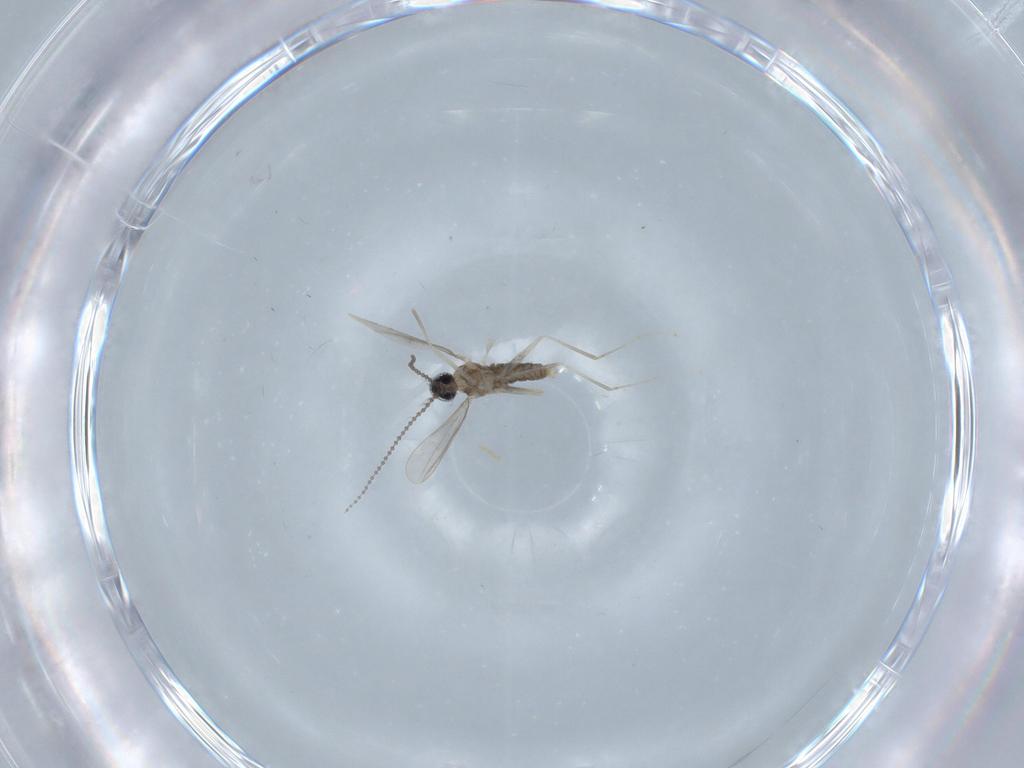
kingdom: Animalia
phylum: Arthropoda
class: Insecta
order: Diptera
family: Cecidomyiidae
